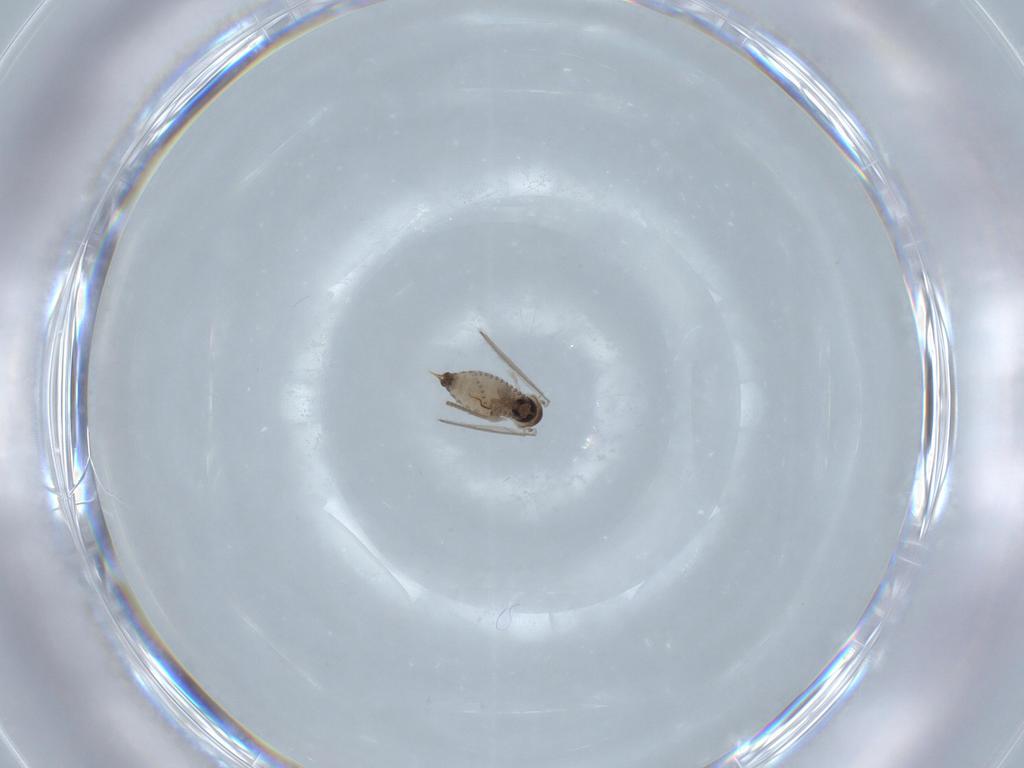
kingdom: Animalia
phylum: Arthropoda
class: Insecta
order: Diptera
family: Psychodidae
